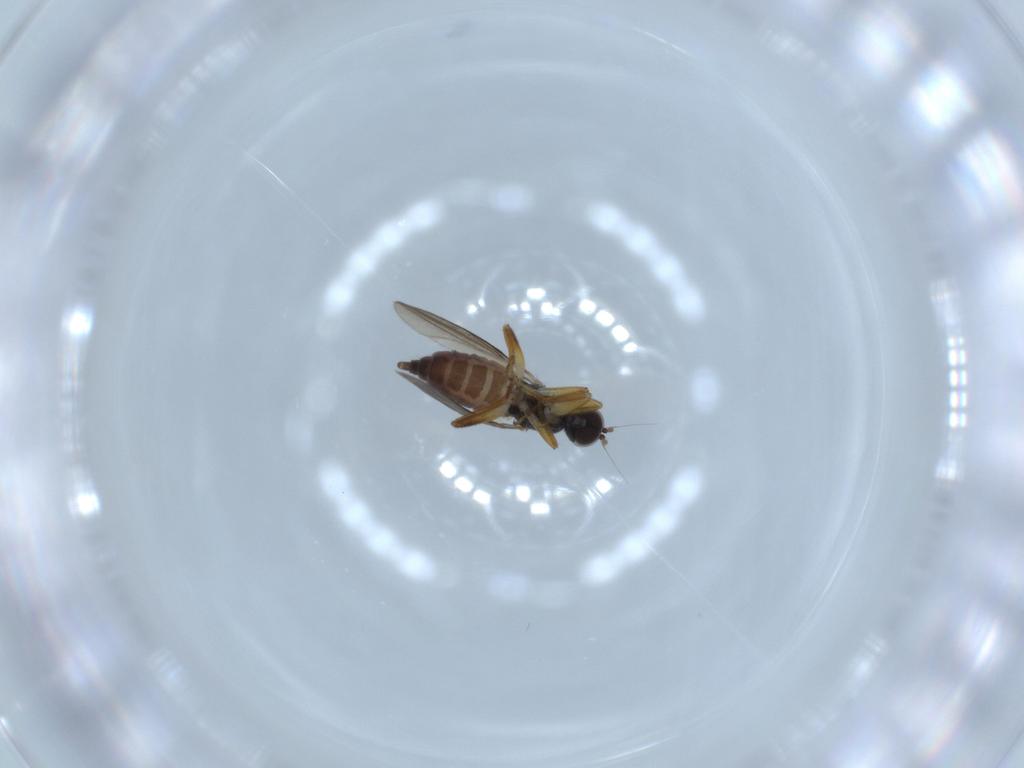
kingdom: Animalia
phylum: Arthropoda
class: Insecta
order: Diptera
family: Hybotidae
